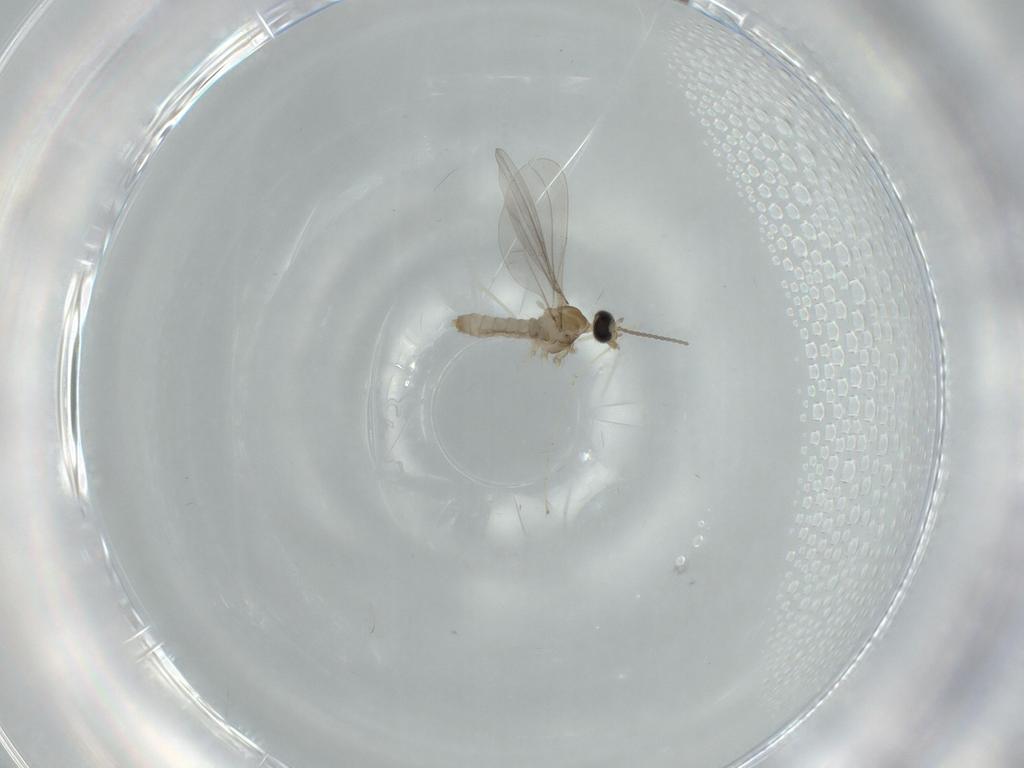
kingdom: Animalia
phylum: Arthropoda
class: Insecta
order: Diptera
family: Cecidomyiidae
